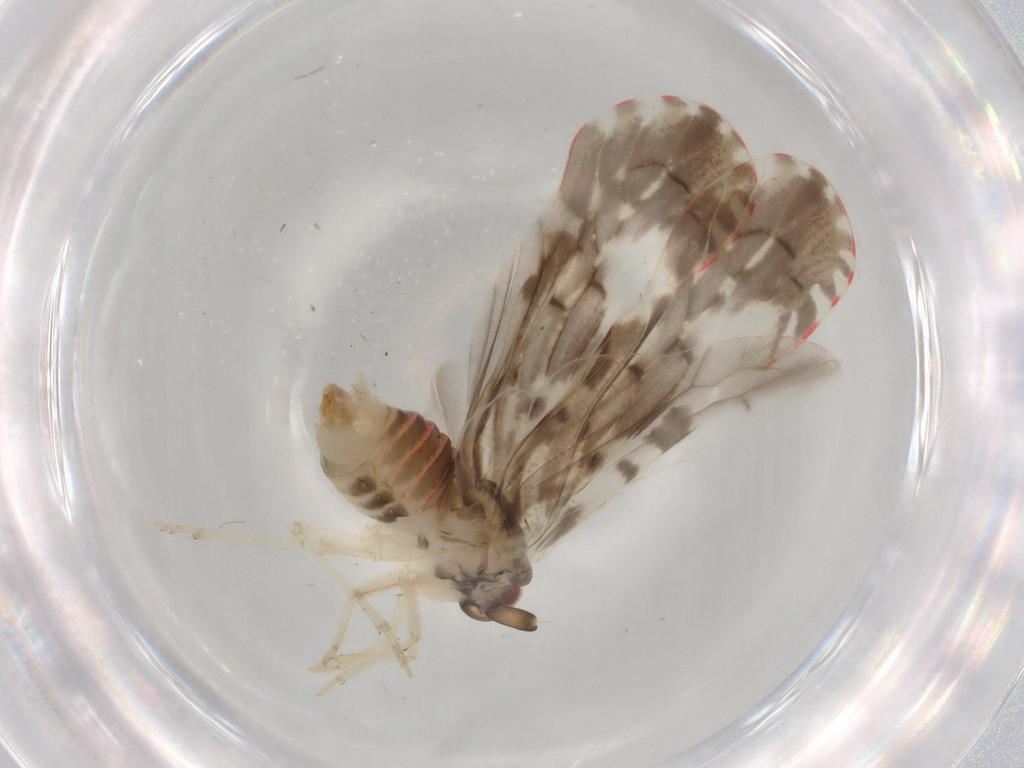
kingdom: Animalia
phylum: Arthropoda
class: Insecta
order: Hemiptera
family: Derbidae
